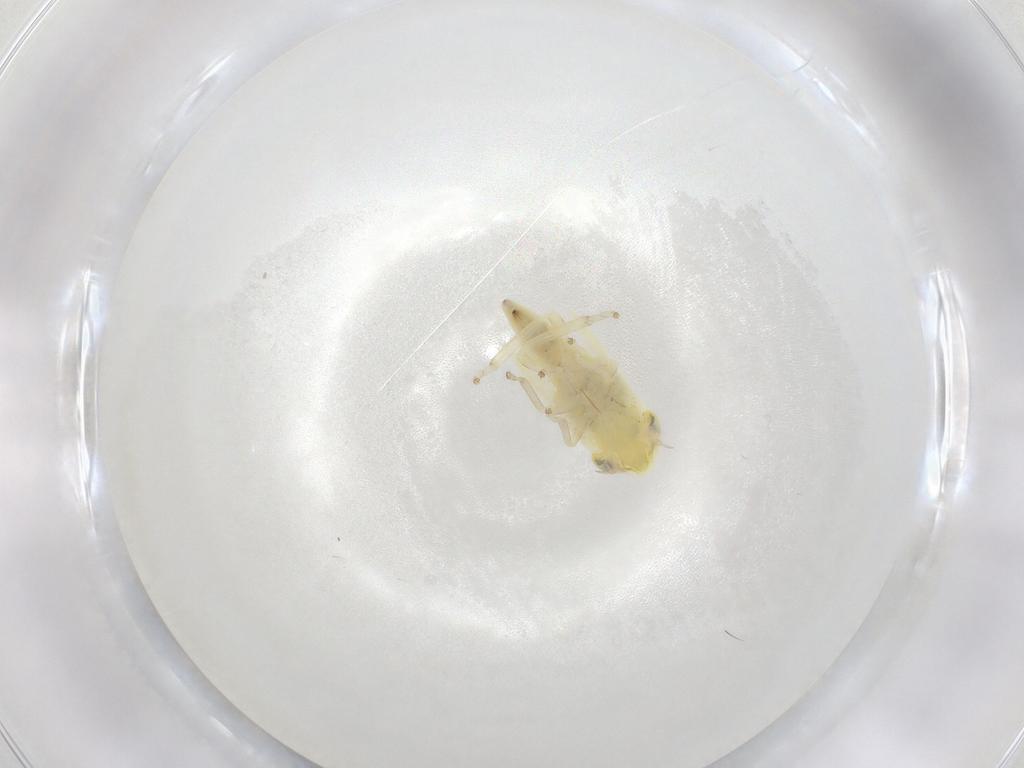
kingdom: Animalia
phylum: Arthropoda
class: Insecta
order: Hemiptera
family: Cicadellidae
